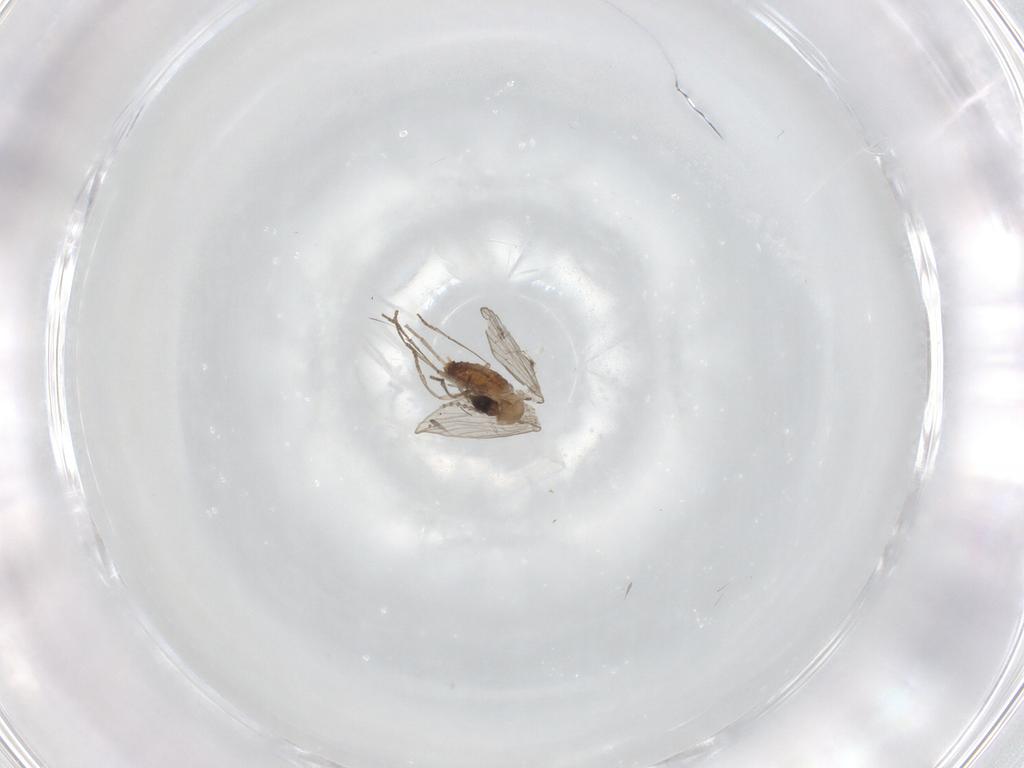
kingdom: Animalia
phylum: Arthropoda
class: Insecta
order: Diptera
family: Psychodidae
